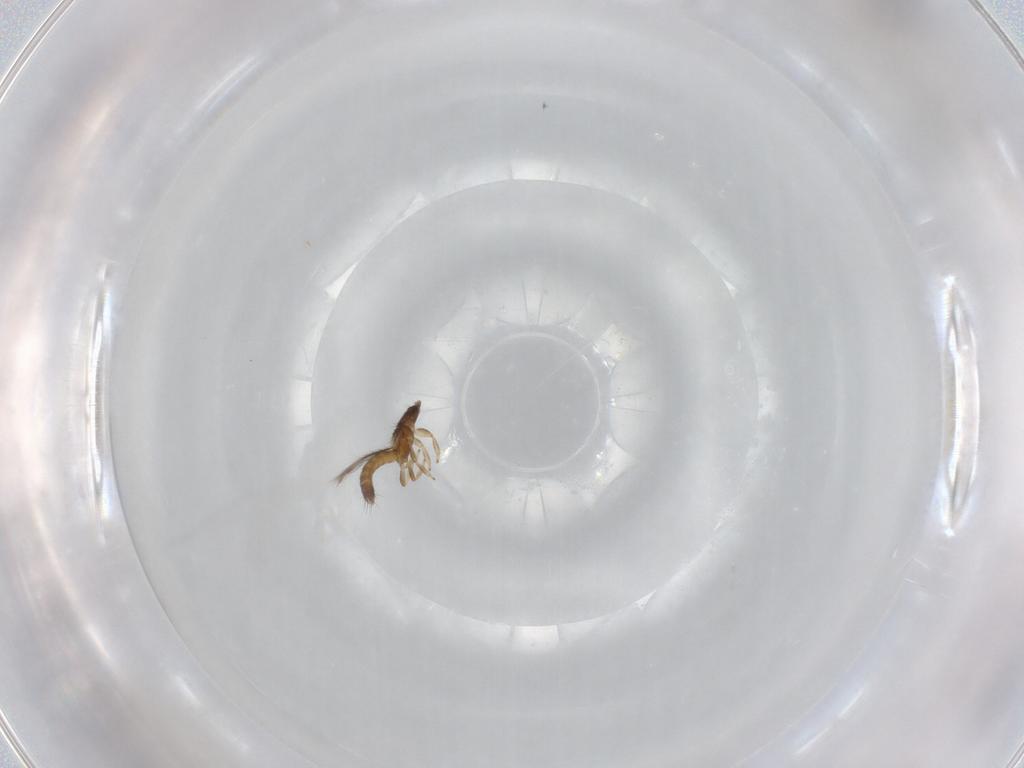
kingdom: Animalia
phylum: Arthropoda
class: Insecta
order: Thysanoptera
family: Thripidae
